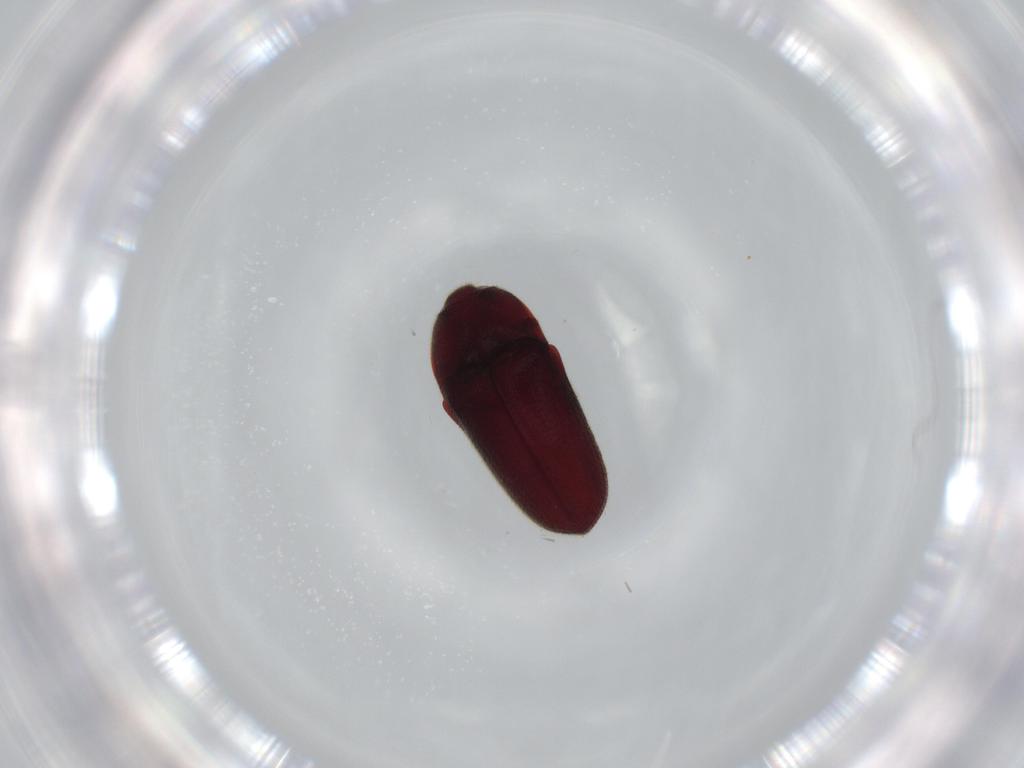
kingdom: Animalia
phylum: Arthropoda
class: Insecta
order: Coleoptera
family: Throscidae
